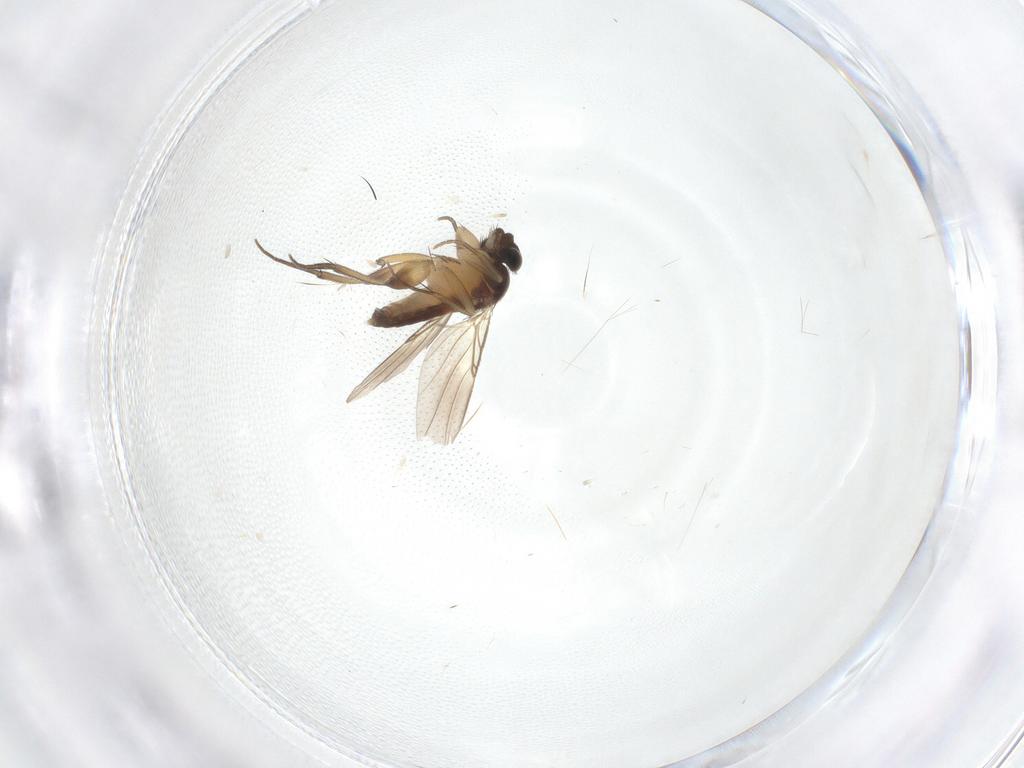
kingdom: Animalia
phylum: Arthropoda
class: Insecta
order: Diptera
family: Phoridae
